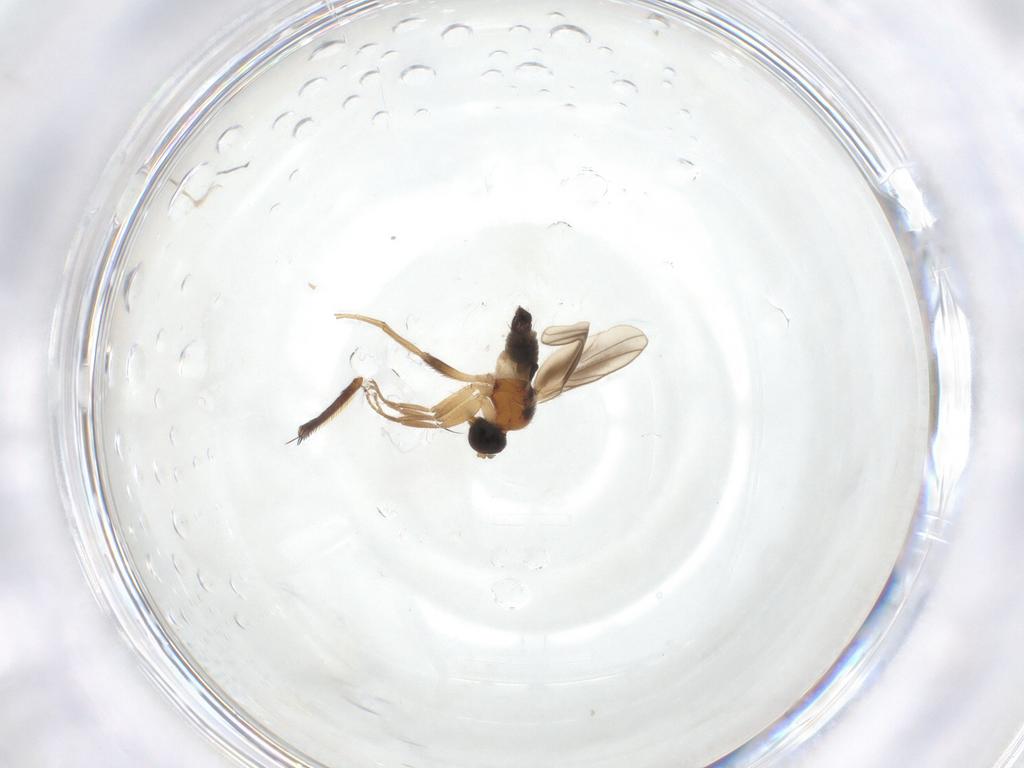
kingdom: Animalia
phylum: Arthropoda
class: Insecta
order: Diptera
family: Hybotidae
